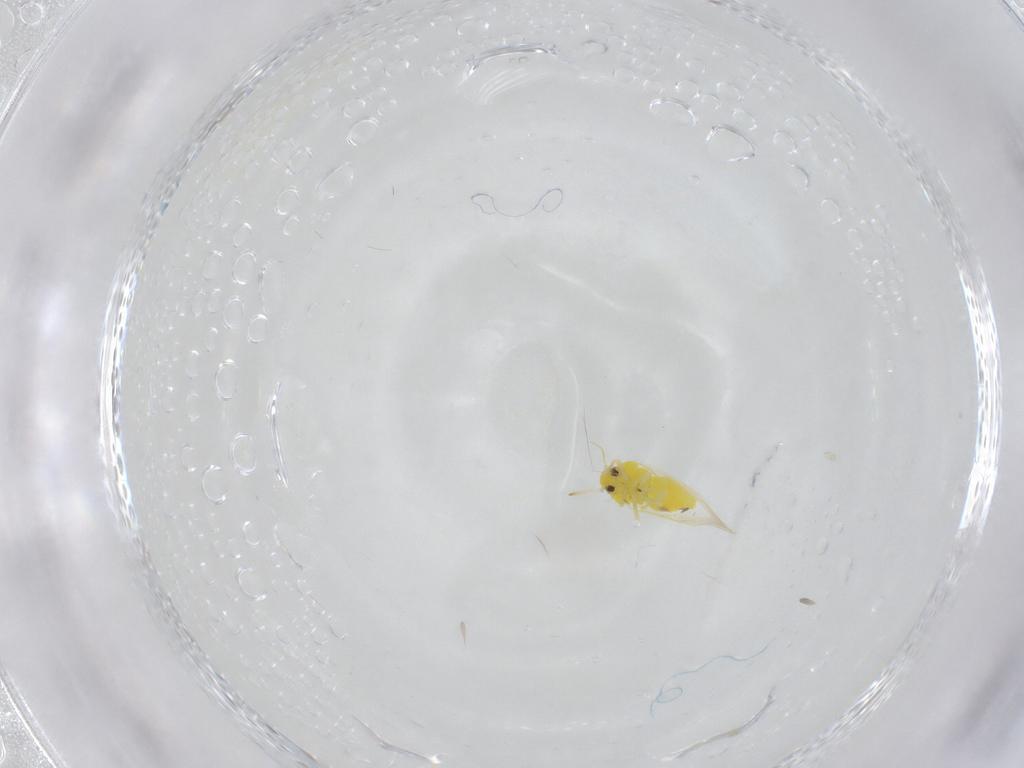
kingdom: Animalia
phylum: Arthropoda
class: Insecta
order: Hemiptera
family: Aleyrodidae
